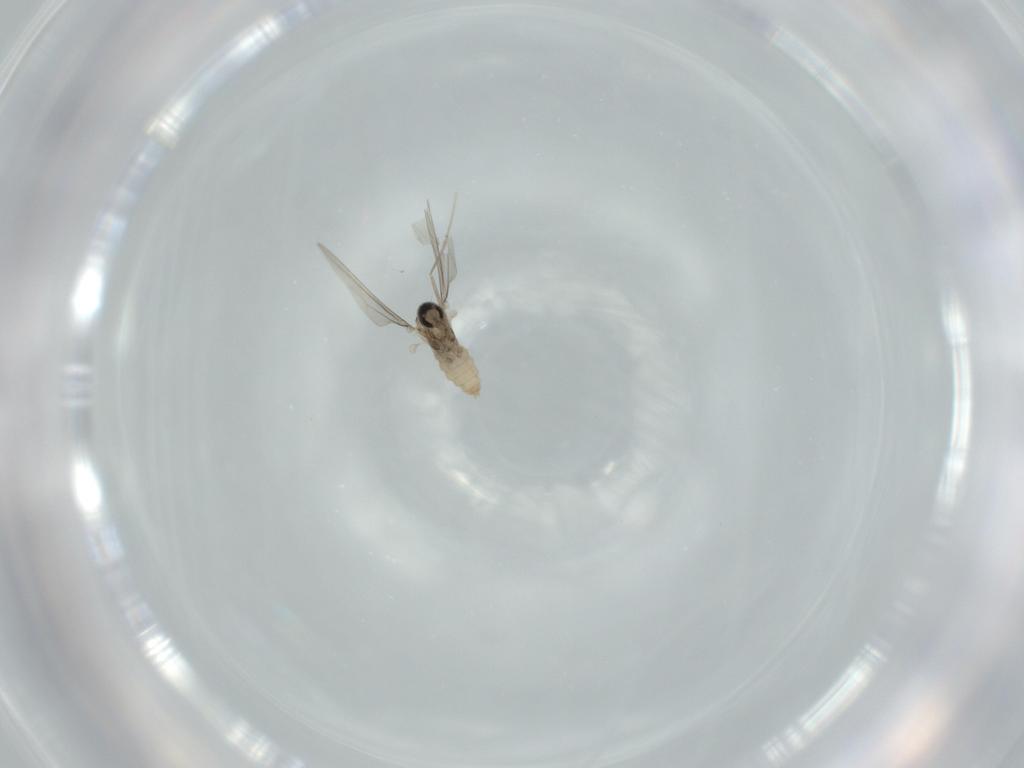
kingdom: Animalia
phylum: Arthropoda
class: Insecta
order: Diptera
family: Cecidomyiidae
